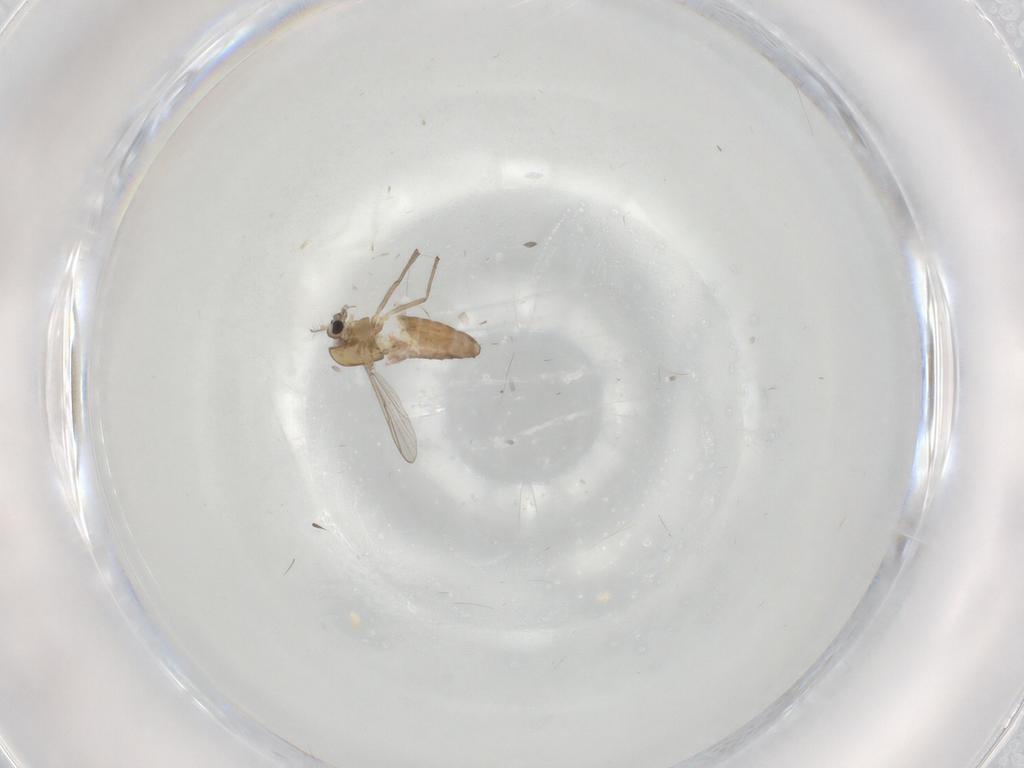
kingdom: Animalia
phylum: Arthropoda
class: Insecta
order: Diptera
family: Chironomidae
